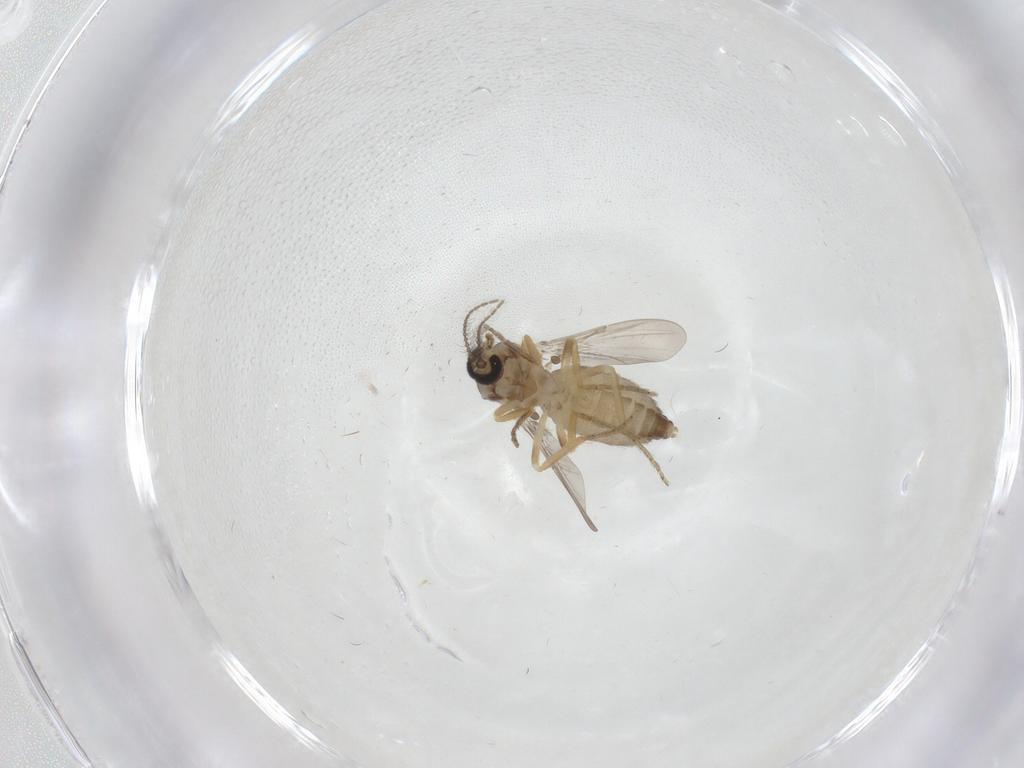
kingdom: Animalia
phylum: Arthropoda
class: Insecta
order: Diptera
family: Ceratopogonidae
